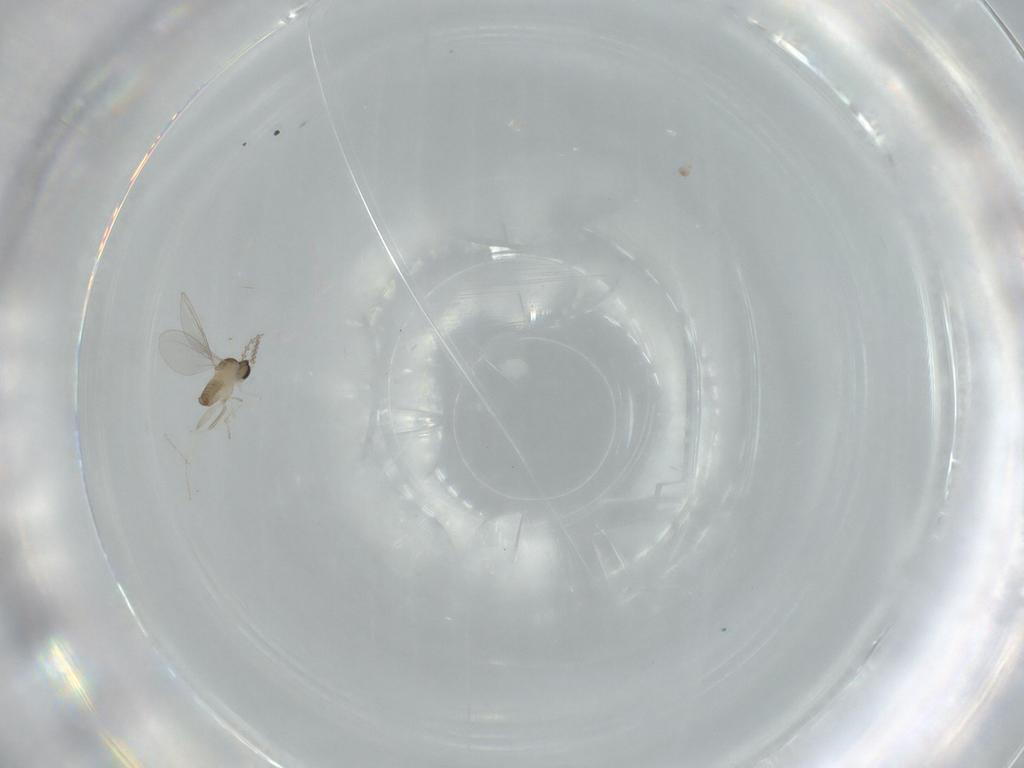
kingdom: Animalia
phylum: Arthropoda
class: Insecta
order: Diptera
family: Cecidomyiidae
